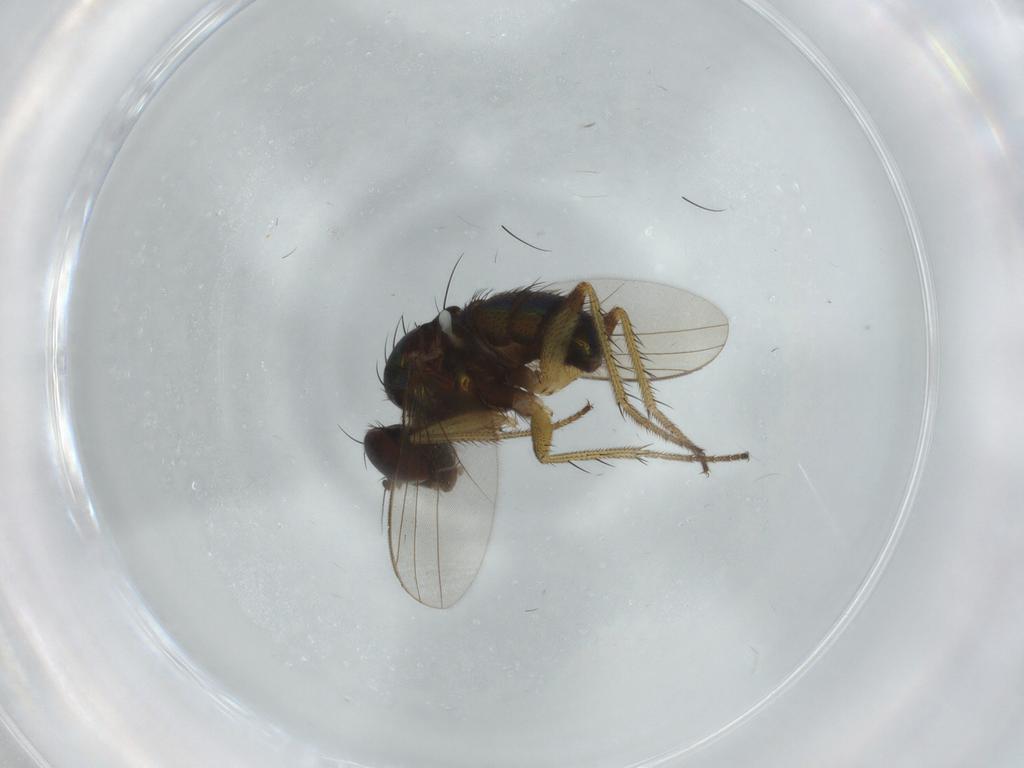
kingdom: Animalia
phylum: Arthropoda
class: Insecta
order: Diptera
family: Dolichopodidae
